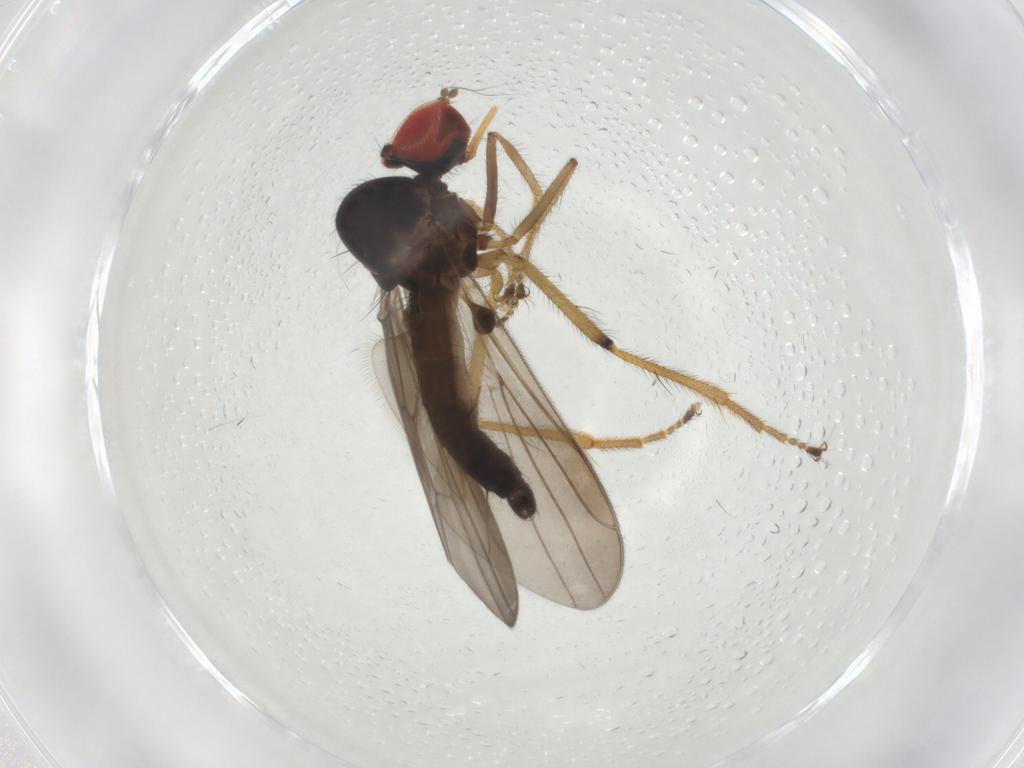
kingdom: Animalia
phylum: Arthropoda
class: Insecta
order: Diptera
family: Hybotidae
